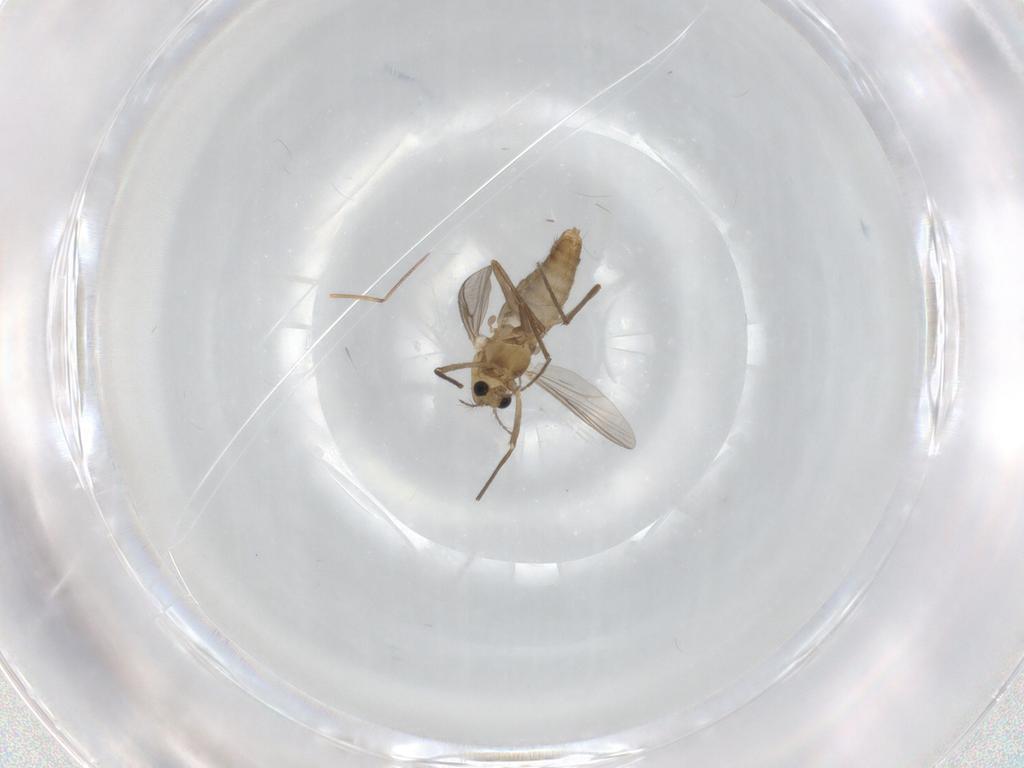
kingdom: Animalia
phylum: Arthropoda
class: Insecta
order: Diptera
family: Chironomidae
